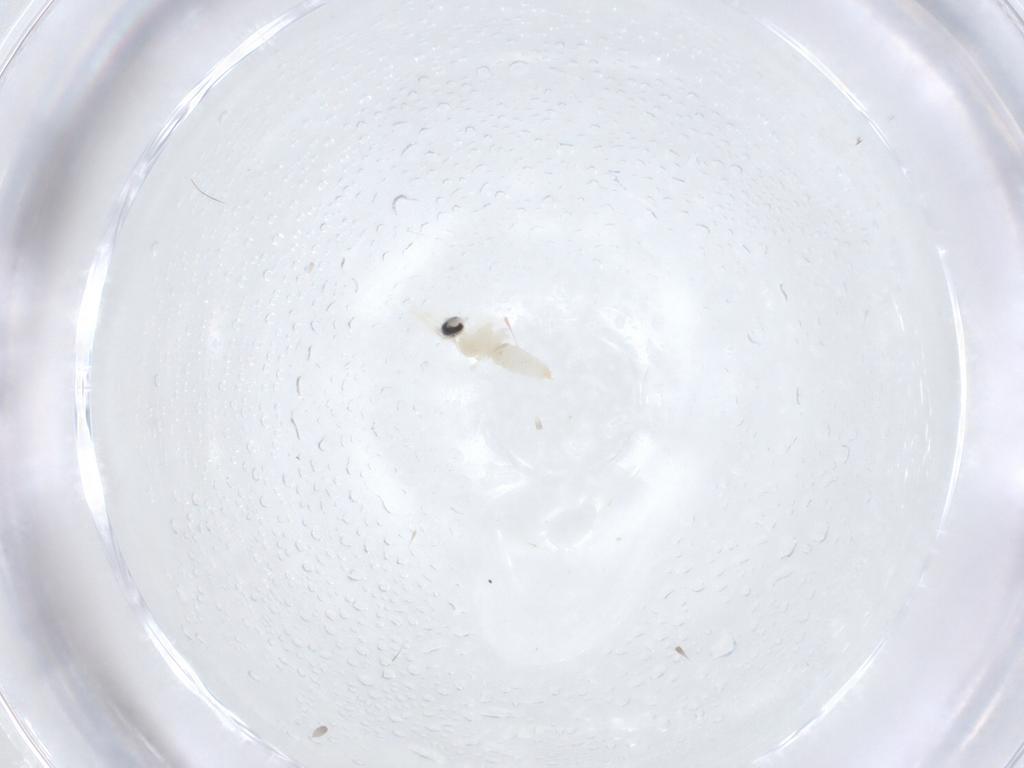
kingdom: Animalia
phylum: Arthropoda
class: Insecta
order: Diptera
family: Cecidomyiidae
